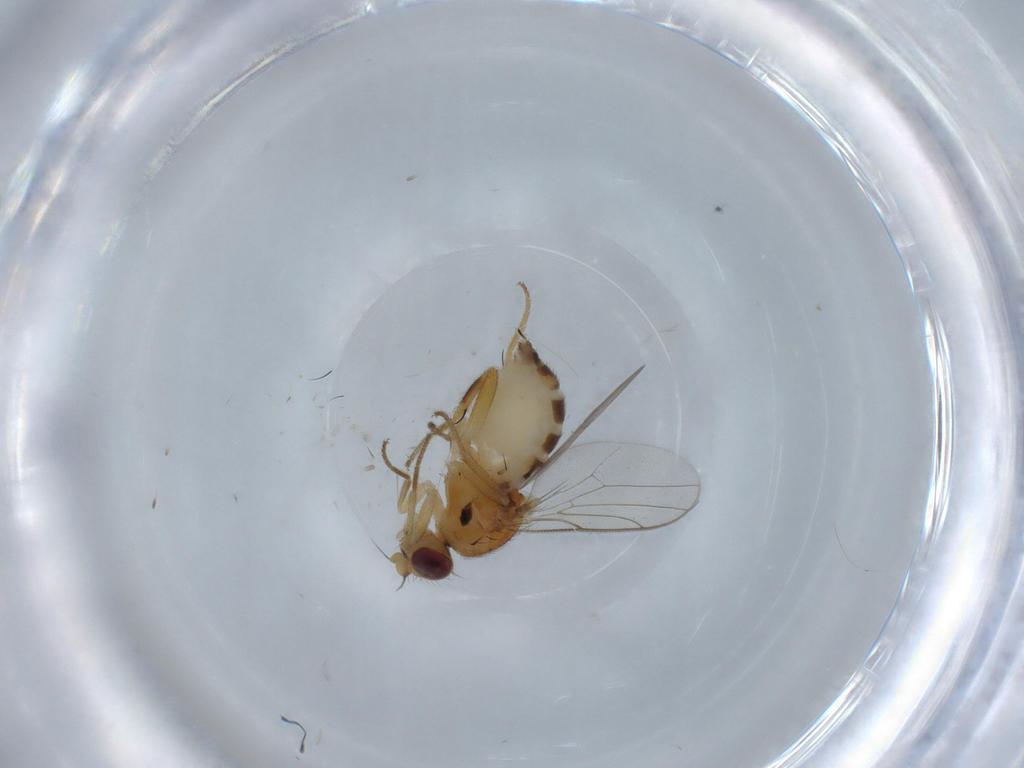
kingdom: Animalia
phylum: Arthropoda
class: Insecta
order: Diptera
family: Chloropidae
